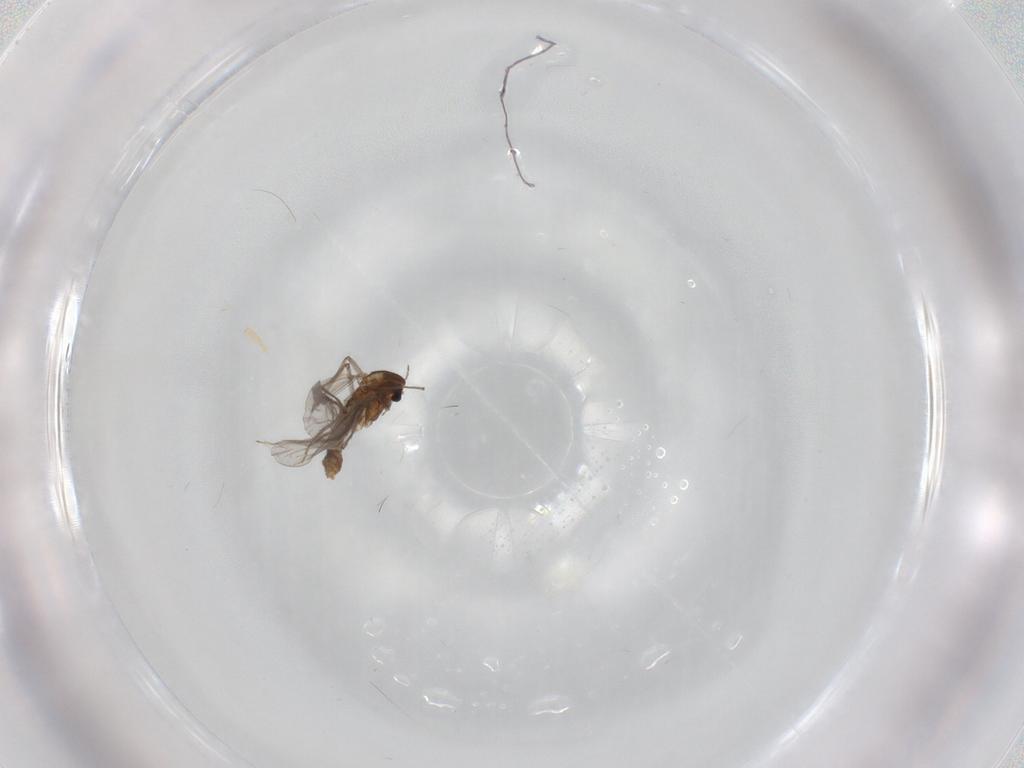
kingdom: Animalia
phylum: Arthropoda
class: Insecta
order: Diptera
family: Chironomidae
